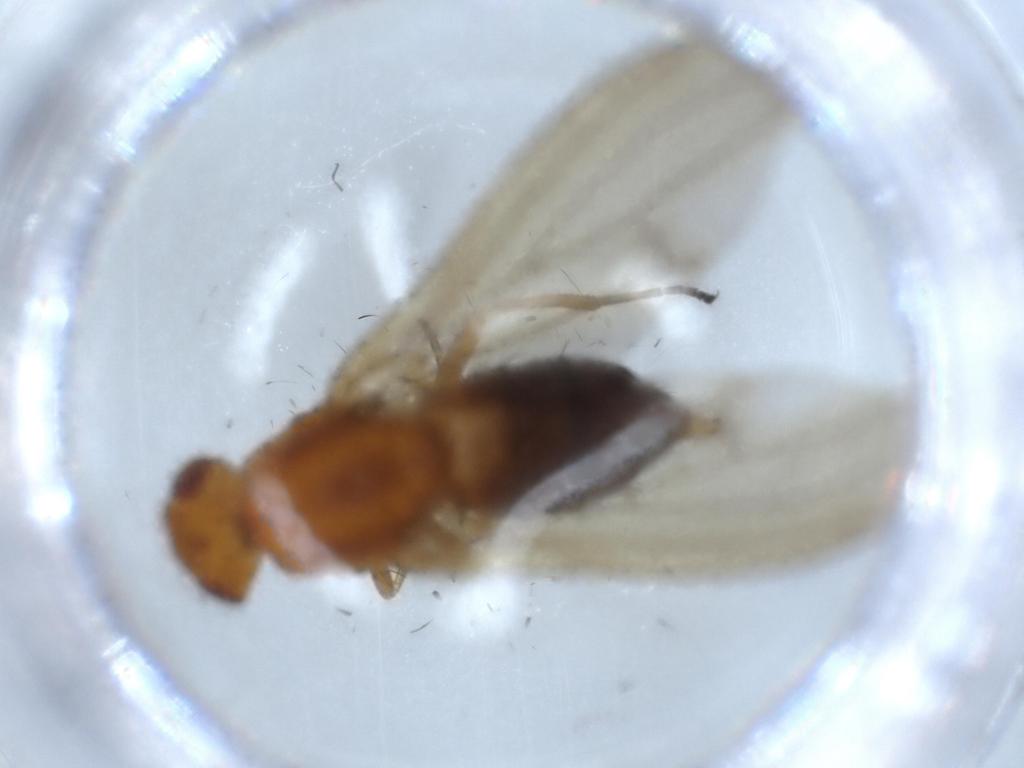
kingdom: Animalia
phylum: Arthropoda
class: Insecta
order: Diptera
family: Lauxaniidae
